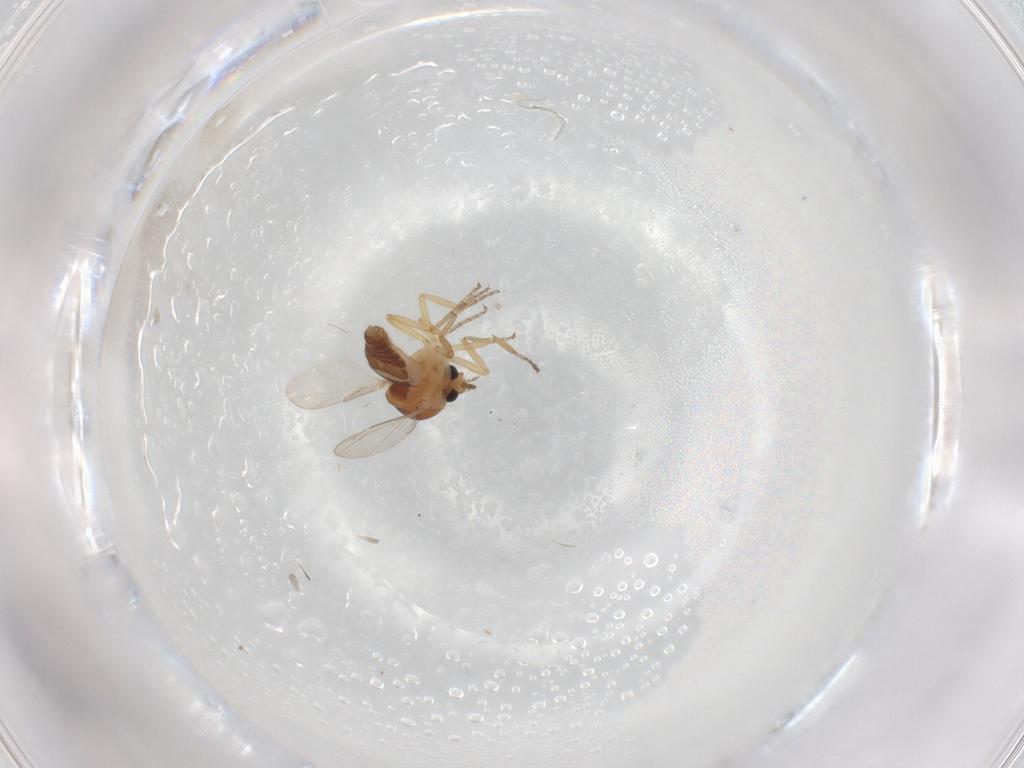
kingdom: Animalia
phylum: Arthropoda
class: Insecta
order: Diptera
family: Ceratopogonidae
